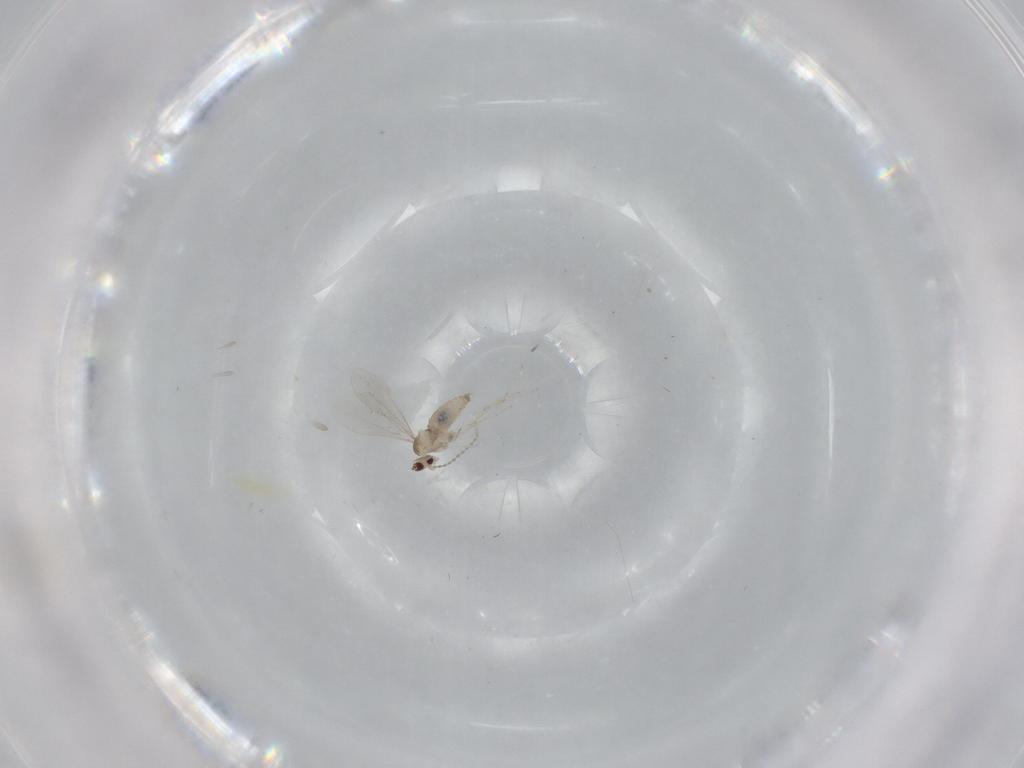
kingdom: Animalia
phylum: Arthropoda
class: Insecta
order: Diptera
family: Cecidomyiidae
